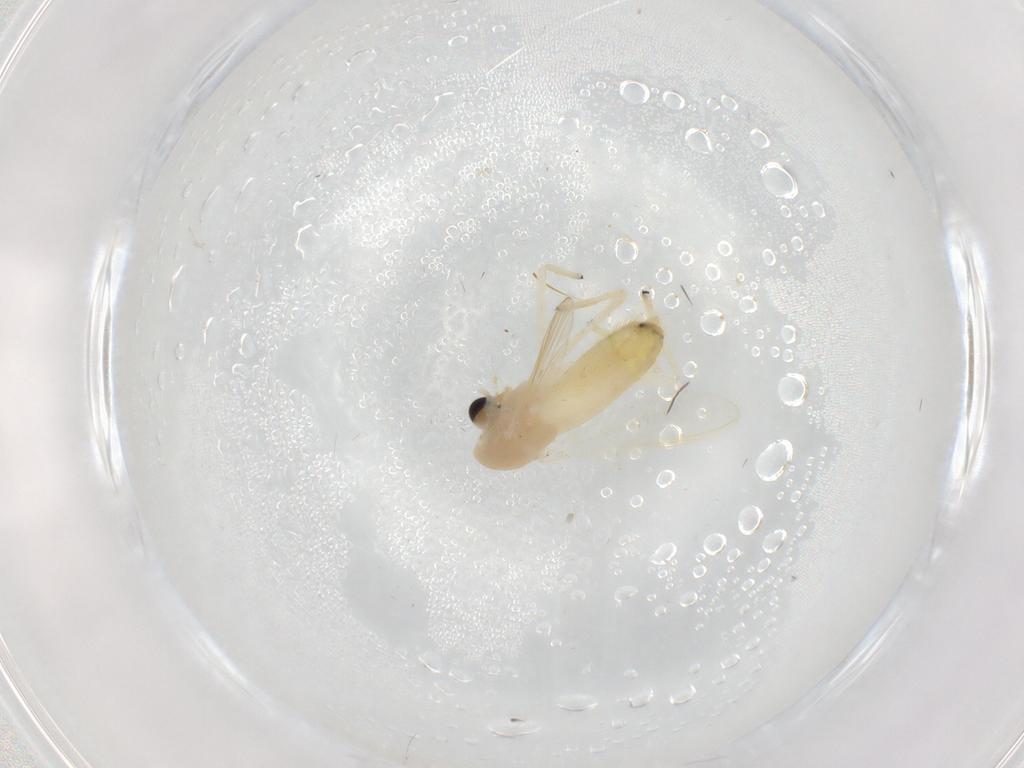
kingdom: Animalia
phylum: Arthropoda
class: Insecta
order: Diptera
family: Chironomidae
